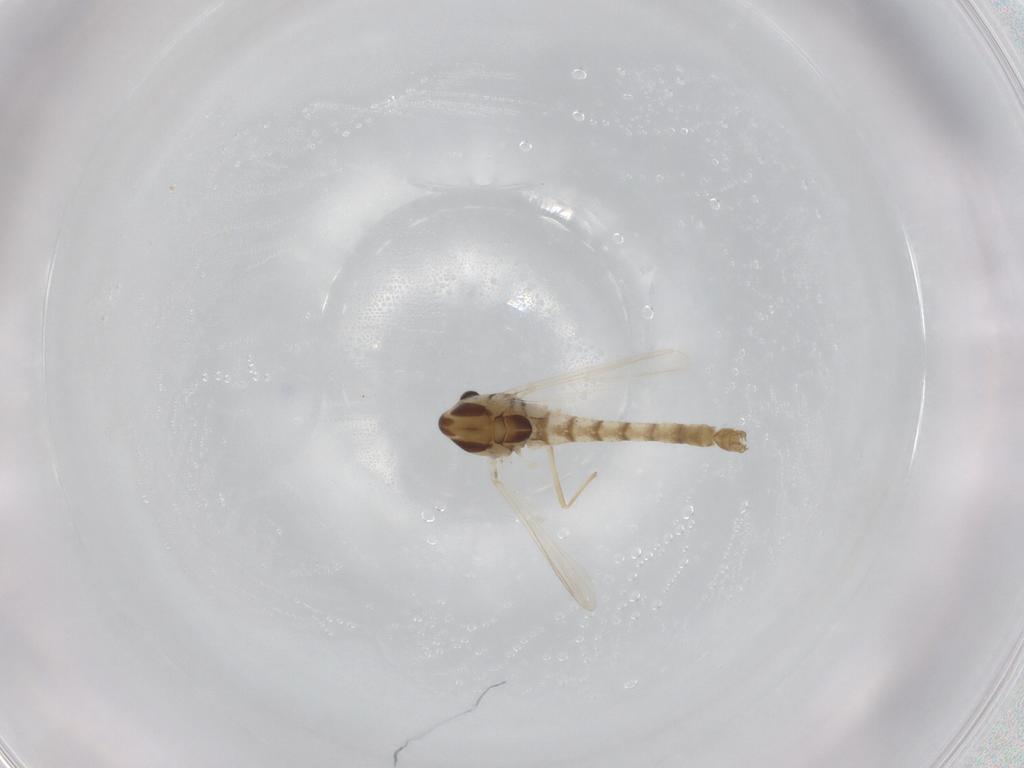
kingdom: Animalia
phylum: Arthropoda
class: Insecta
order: Diptera
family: Chironomidae
